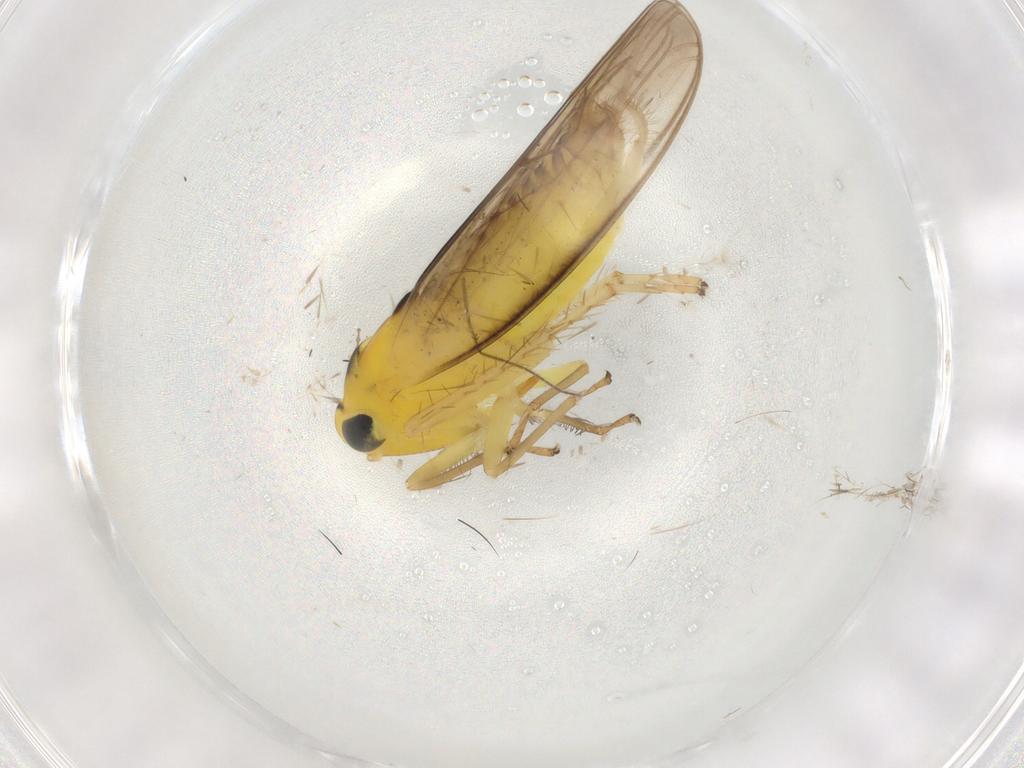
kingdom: Animalia
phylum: Arthropoda
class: Insecta
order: Hemiptera
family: Cicadellidae
